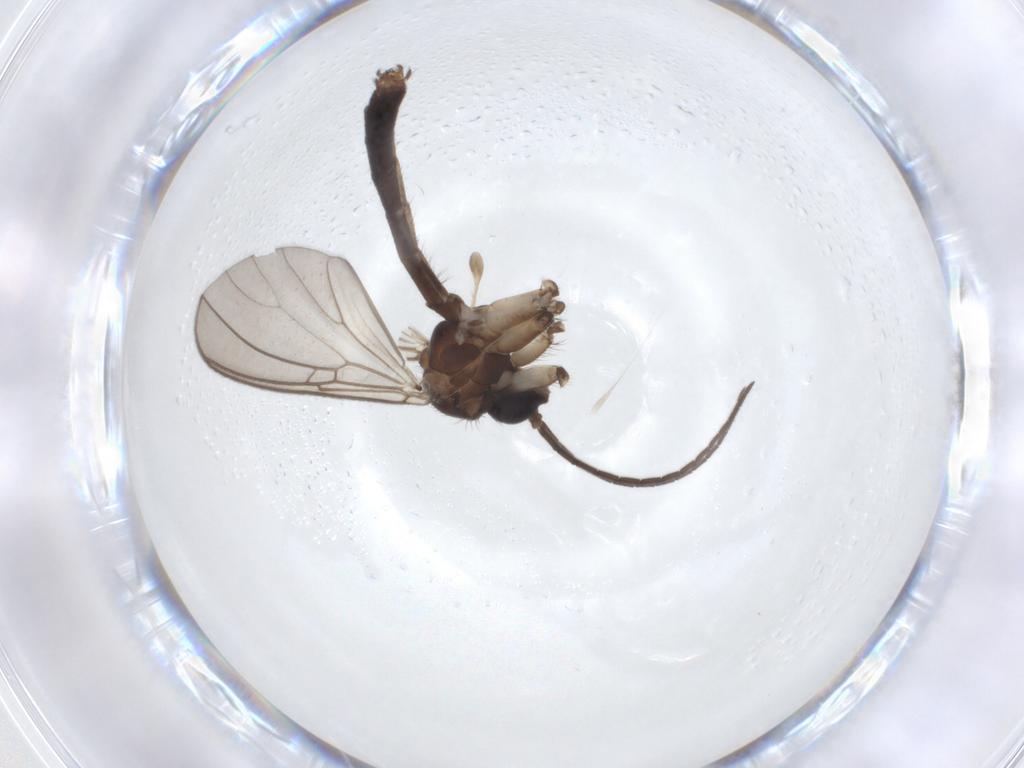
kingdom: Animalia
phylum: Arthropoda
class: Insecta
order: Diptera
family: Mycetophilidae
